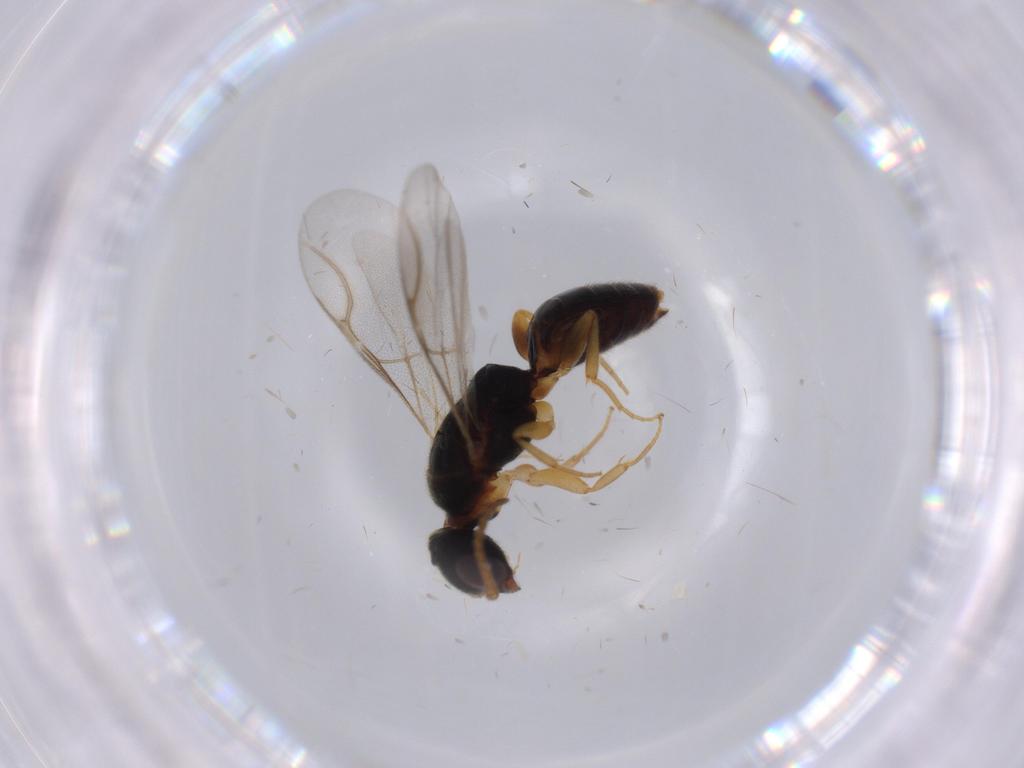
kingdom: Animalia
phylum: Arthropoda
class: Insecta
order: Hymenoptera
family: Bethylidae
